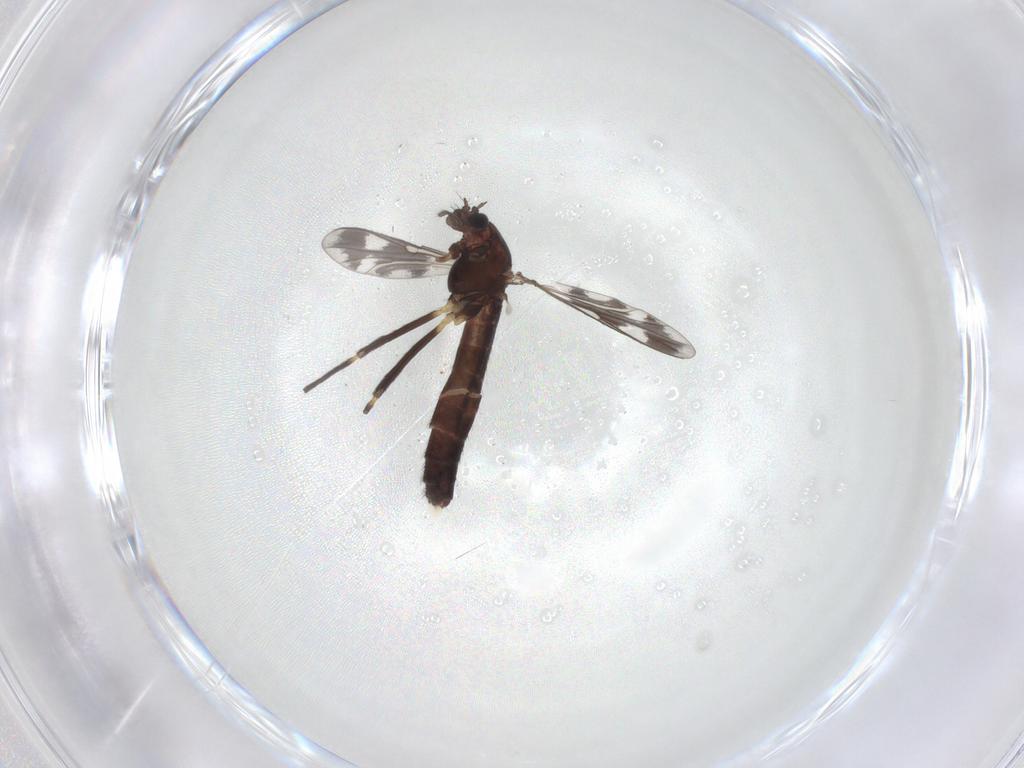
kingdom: Animalia
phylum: Arthropoda
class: Insecta
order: Diptera
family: Chironomidae
